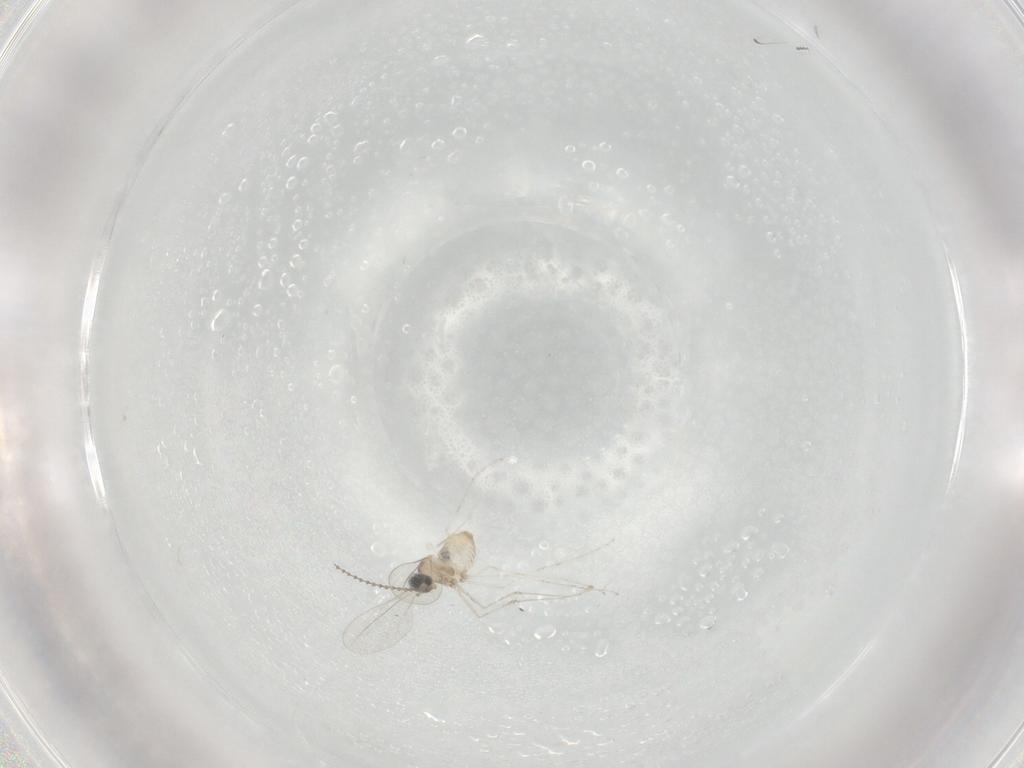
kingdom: Animalia
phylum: Arthropoda
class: Insecta
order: Diptera
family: Cecidomyiidae
